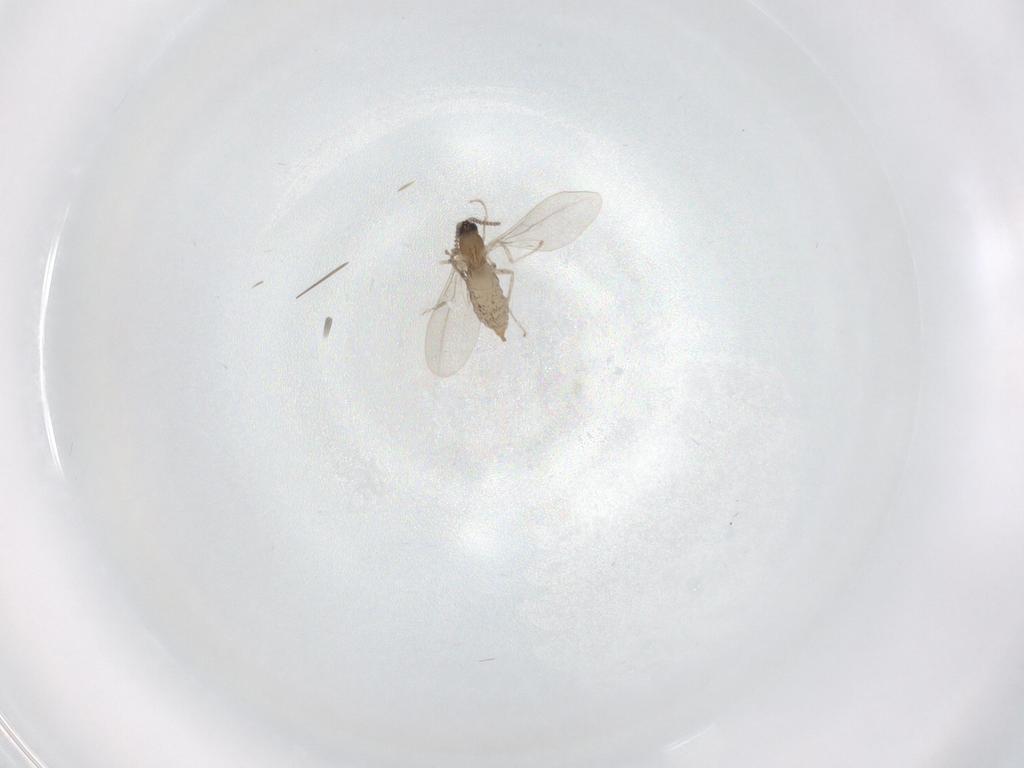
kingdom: Animalia
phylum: Arthropoda
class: Insecta
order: Diptera
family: Cecidomyiidae
